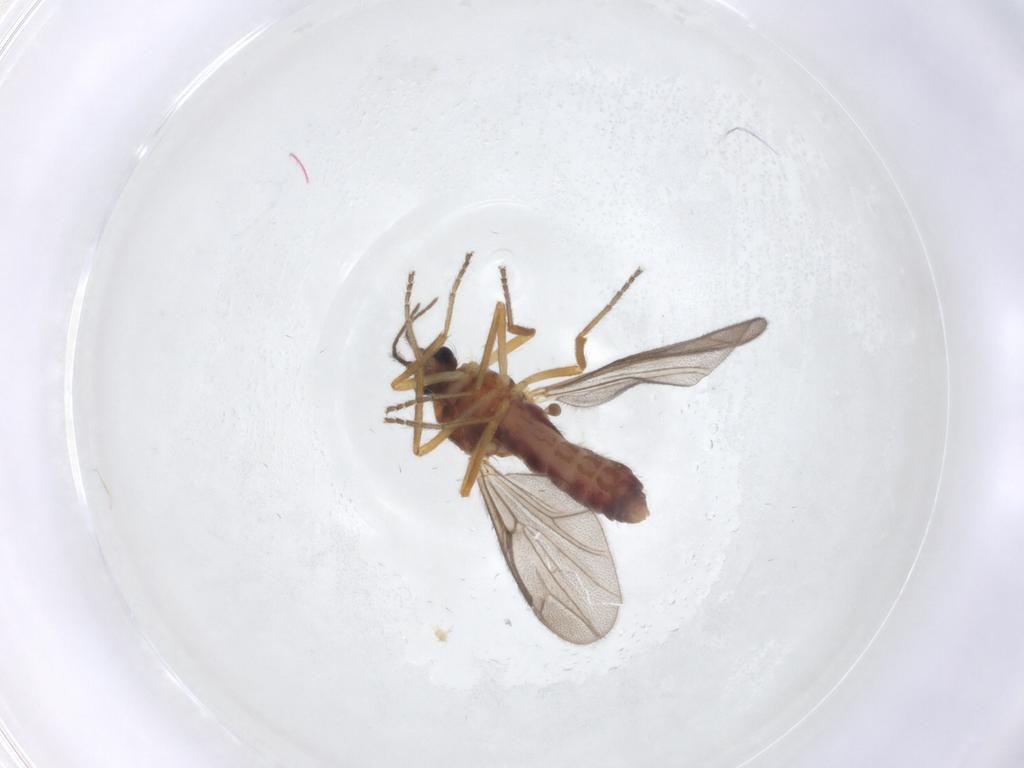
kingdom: Animalia
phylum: Arthropoda
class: Insecta
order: Diptera
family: Ceratopogonidae
